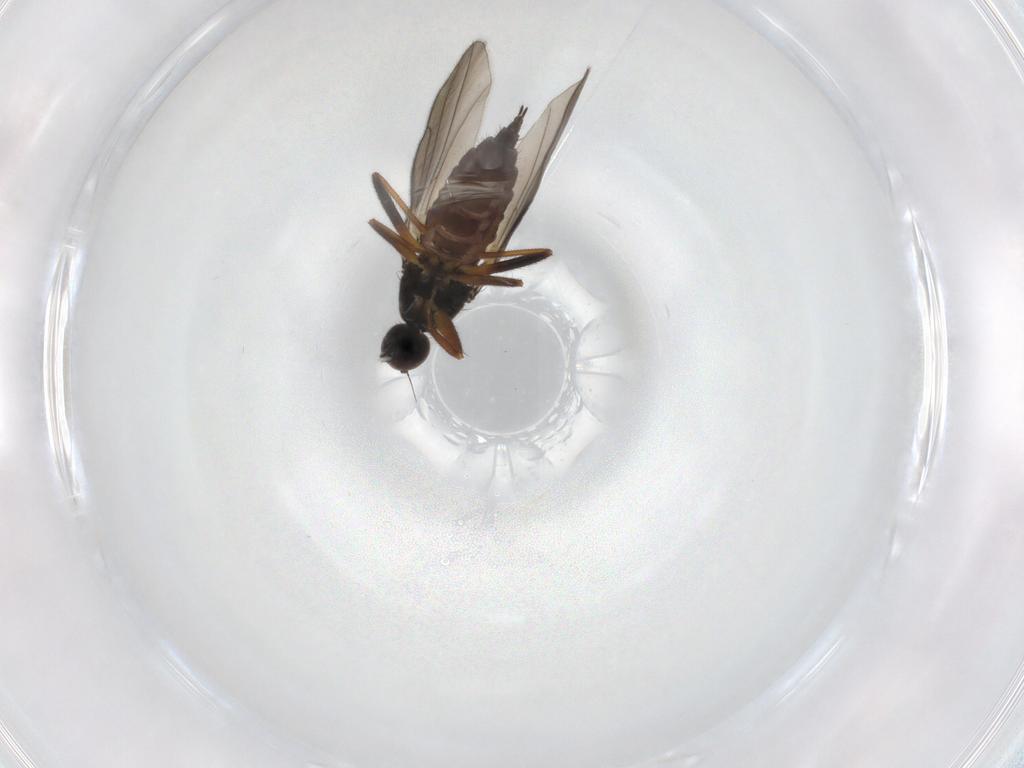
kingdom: Animalia
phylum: Arthropoda
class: Insecta
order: Diptera
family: Hybotidae
